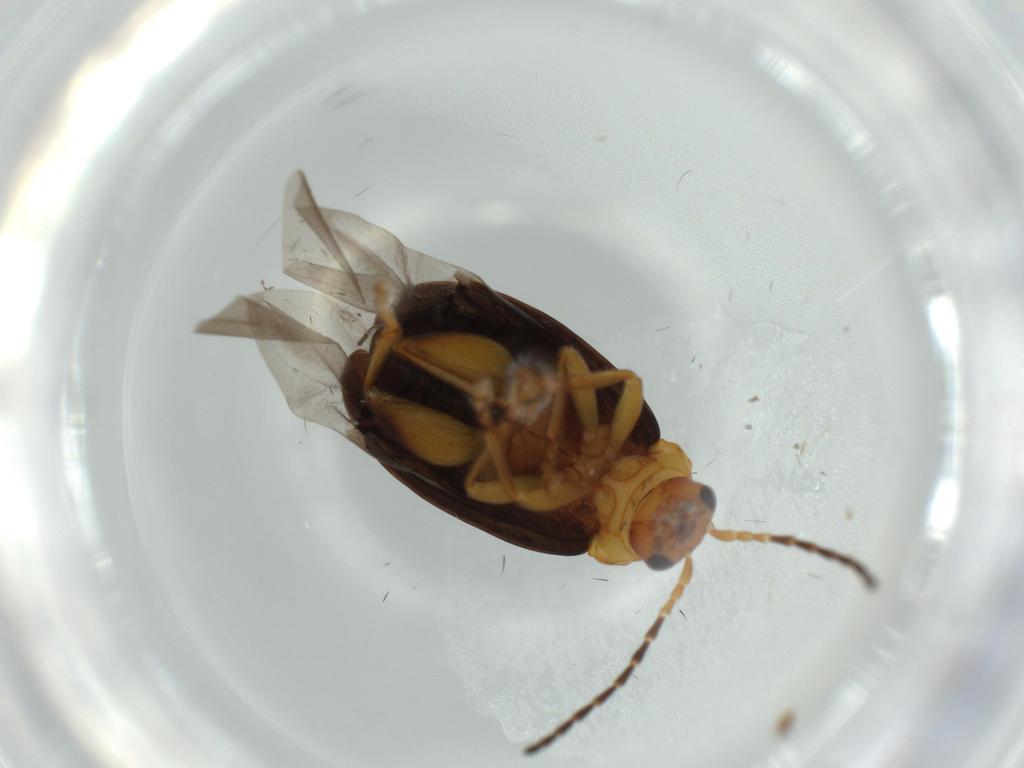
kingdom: Animalia
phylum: Arthropoda
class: Insecta
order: Coleoptera
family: Chrysomelidae
